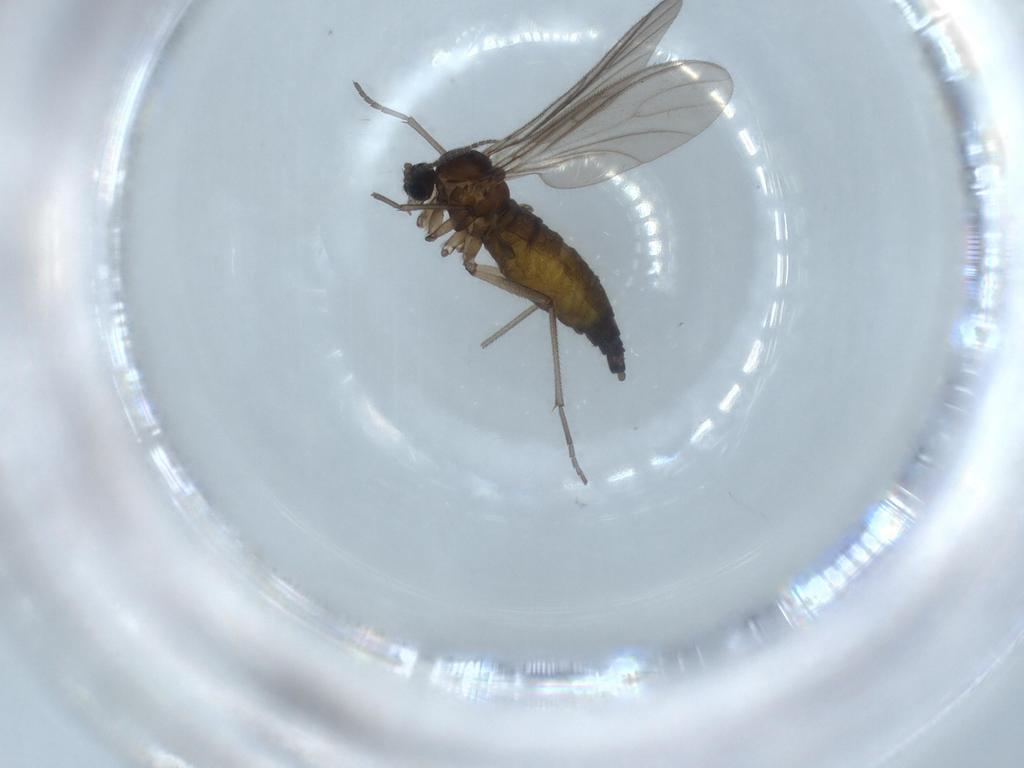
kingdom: Animalia
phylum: Arthropoda
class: Insecta
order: Diptera
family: Sciaridae
